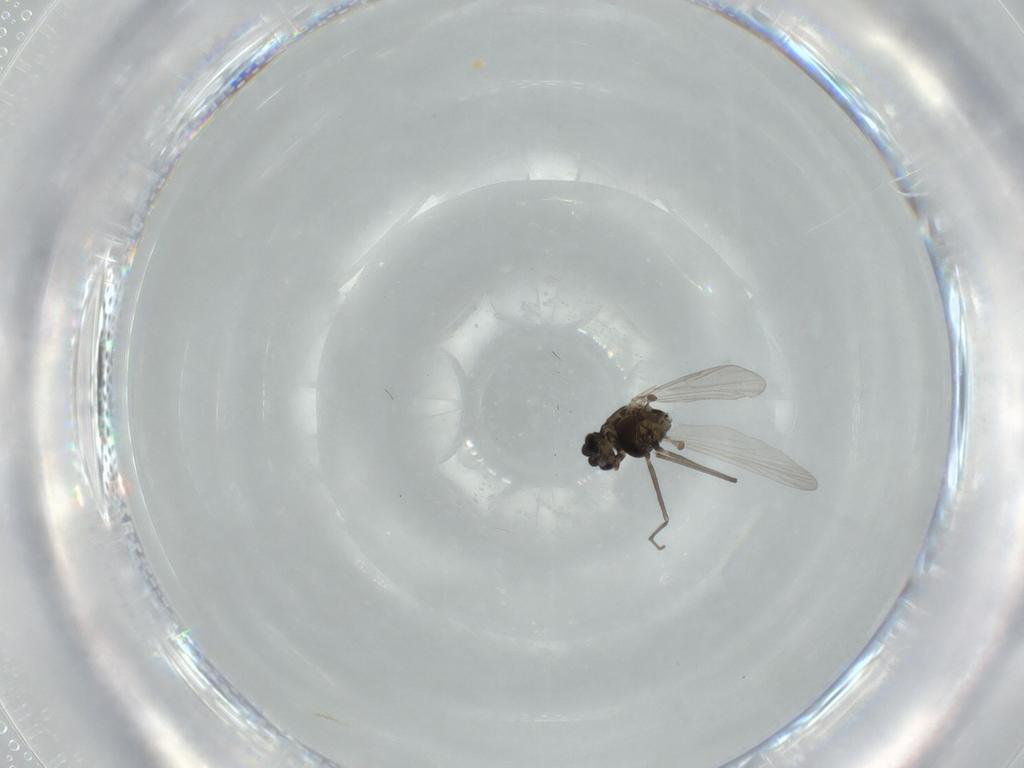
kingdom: Animalia
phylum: Arthropoda
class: Insecta
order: Diptera
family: Chironomidae
